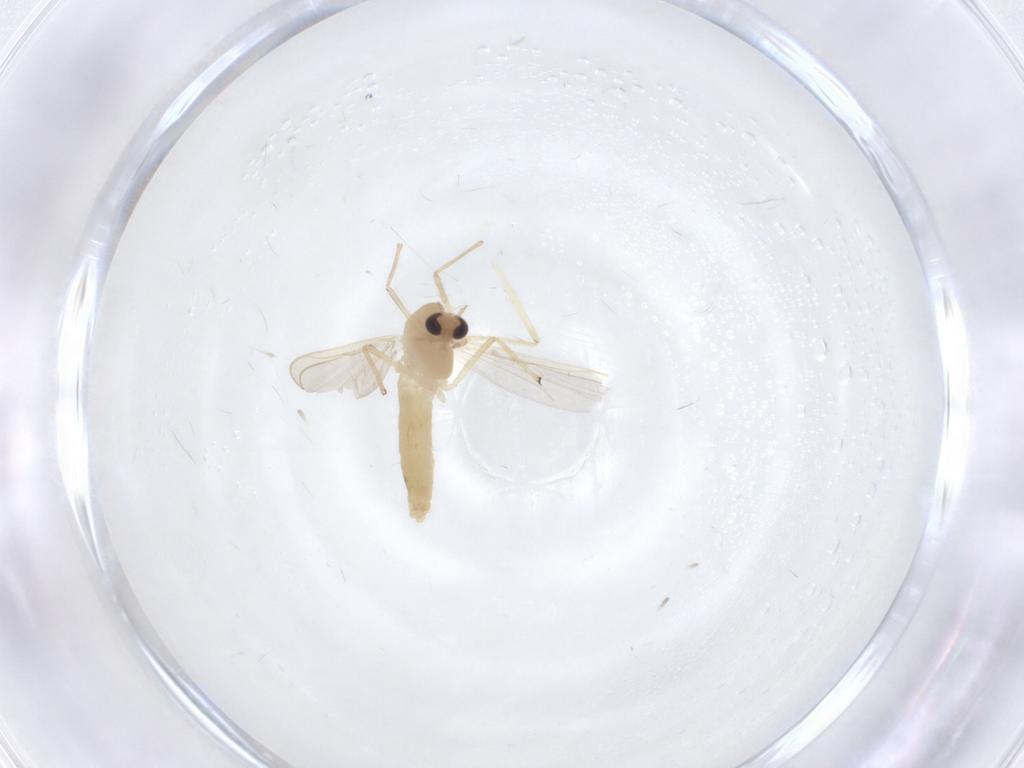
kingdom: Animalia
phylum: Arthropoda
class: Insecta
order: Diptera
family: Chironomidae
